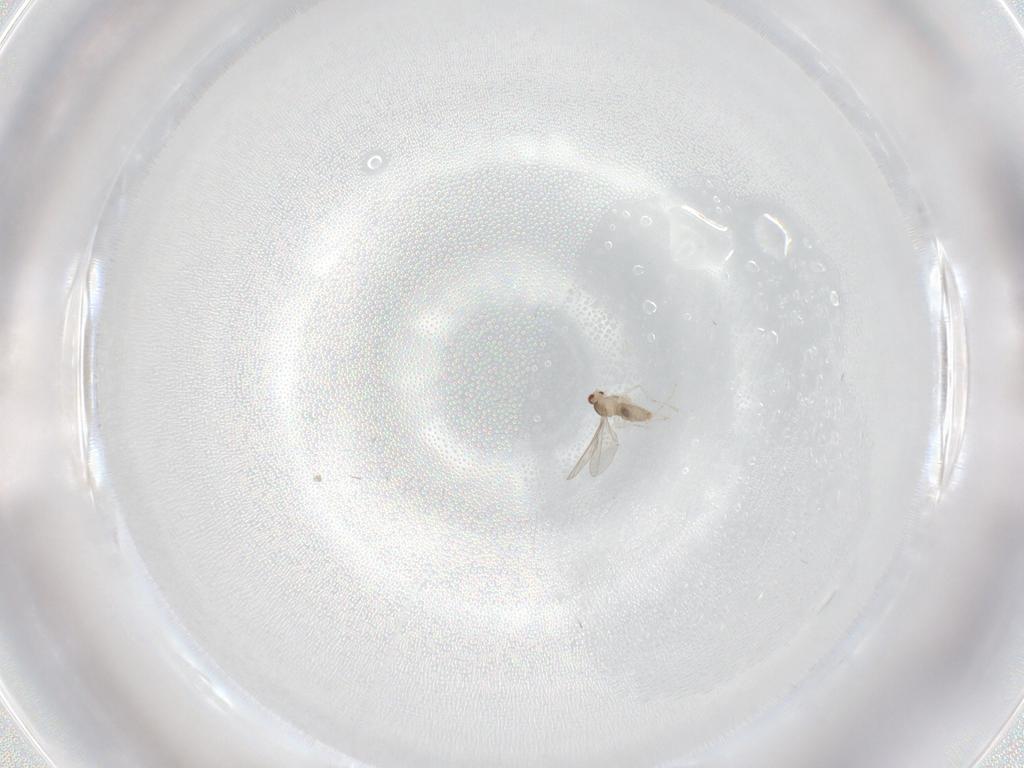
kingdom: Animalia
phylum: Arthropoda
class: Insecta
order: Diptera
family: Cecidomyiidae
